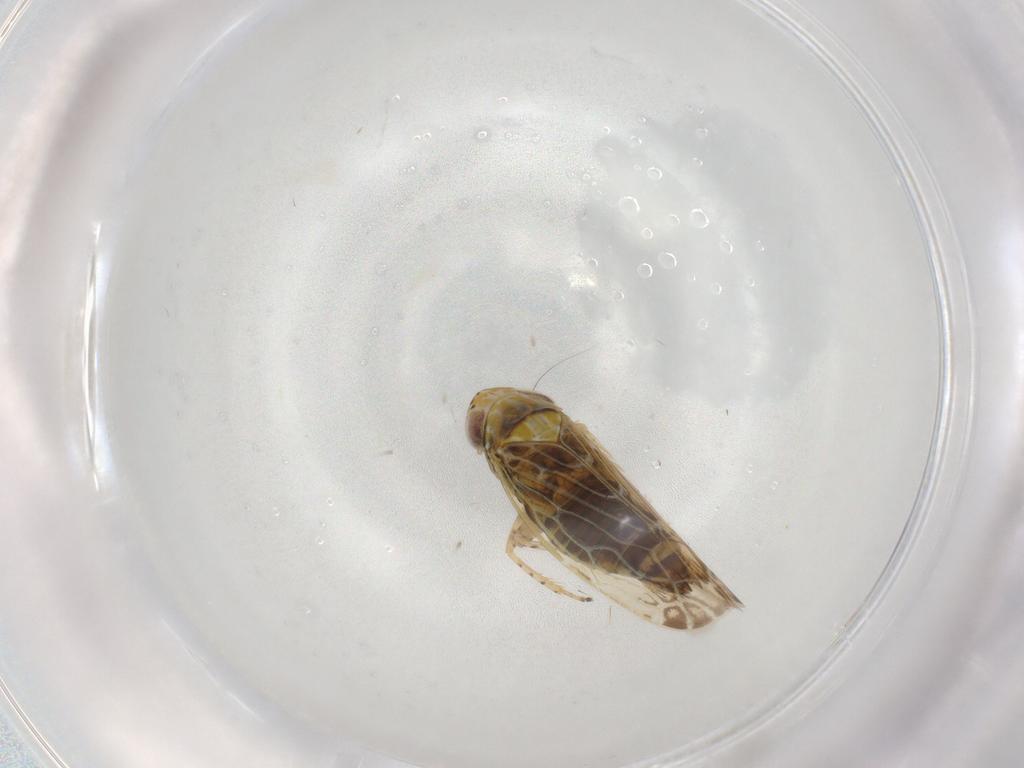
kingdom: Animalia
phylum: Arthropoda
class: Insecta
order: Hemiptera
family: Cicadellidae
